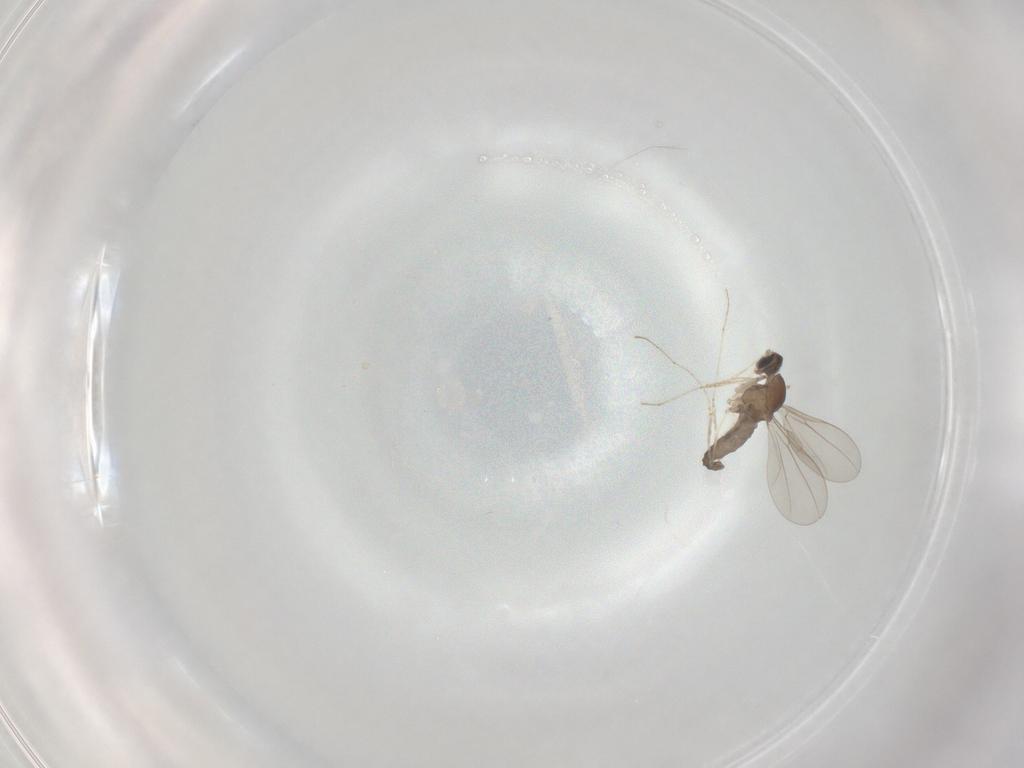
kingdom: Animalia
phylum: Arthropoda
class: Insecta
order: Diptera
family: Cecidomyiidae
